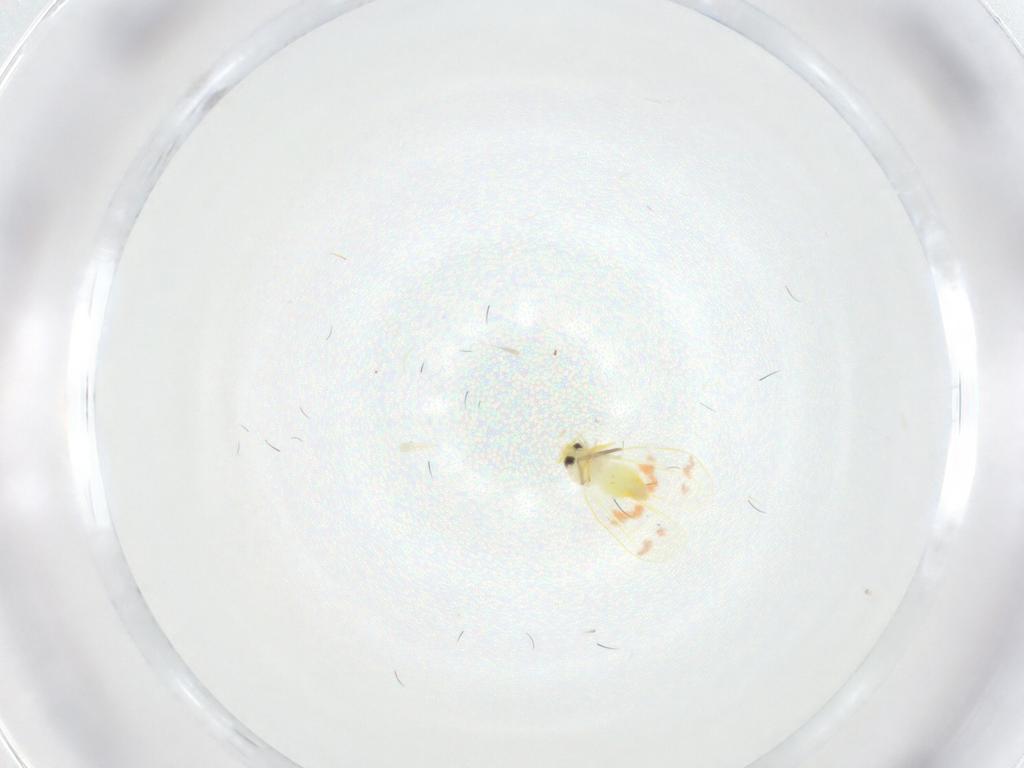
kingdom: Animalia
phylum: Arthropoda
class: Insecta
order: Hemiptera
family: Aleyrodidae
